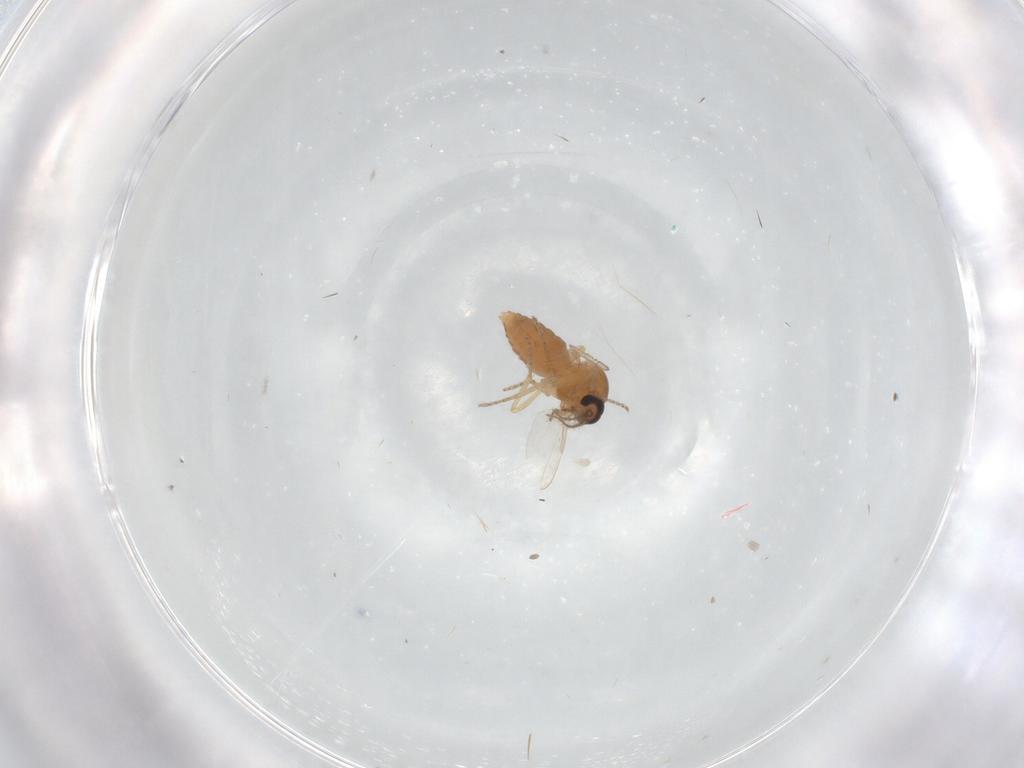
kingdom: Animalia
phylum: Arthropoda
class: Insecta
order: Diptera
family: Ceratopogonidae
